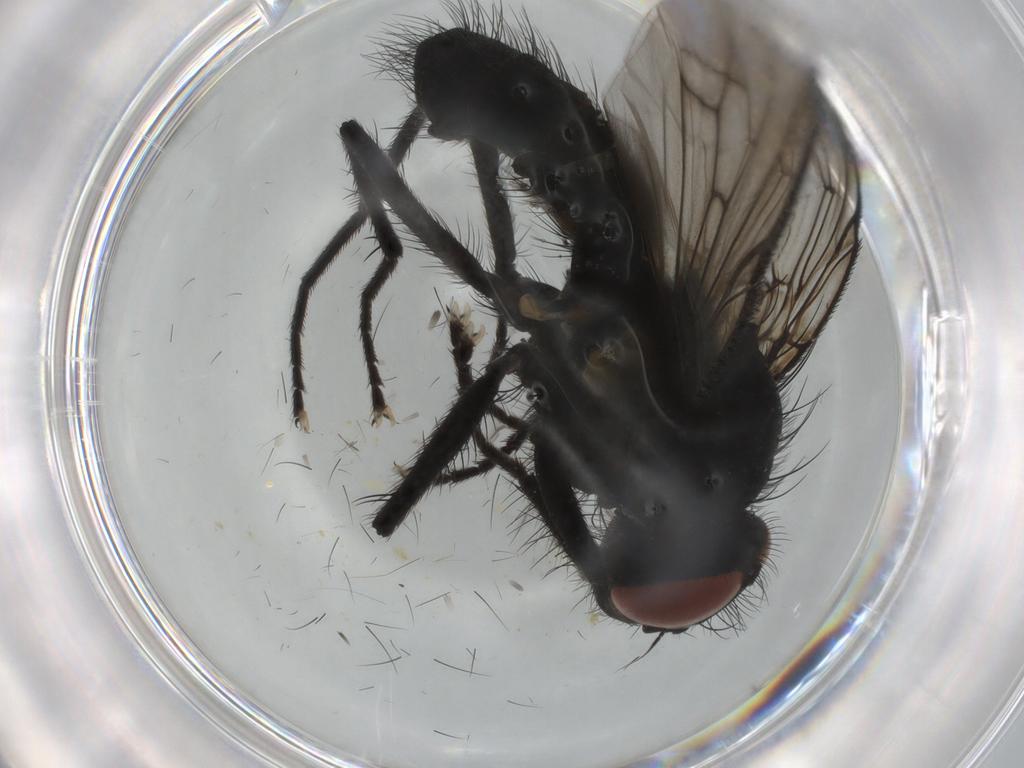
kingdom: Animalia
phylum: Arthropoda
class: Insecta
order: Diptera
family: Muscidae
